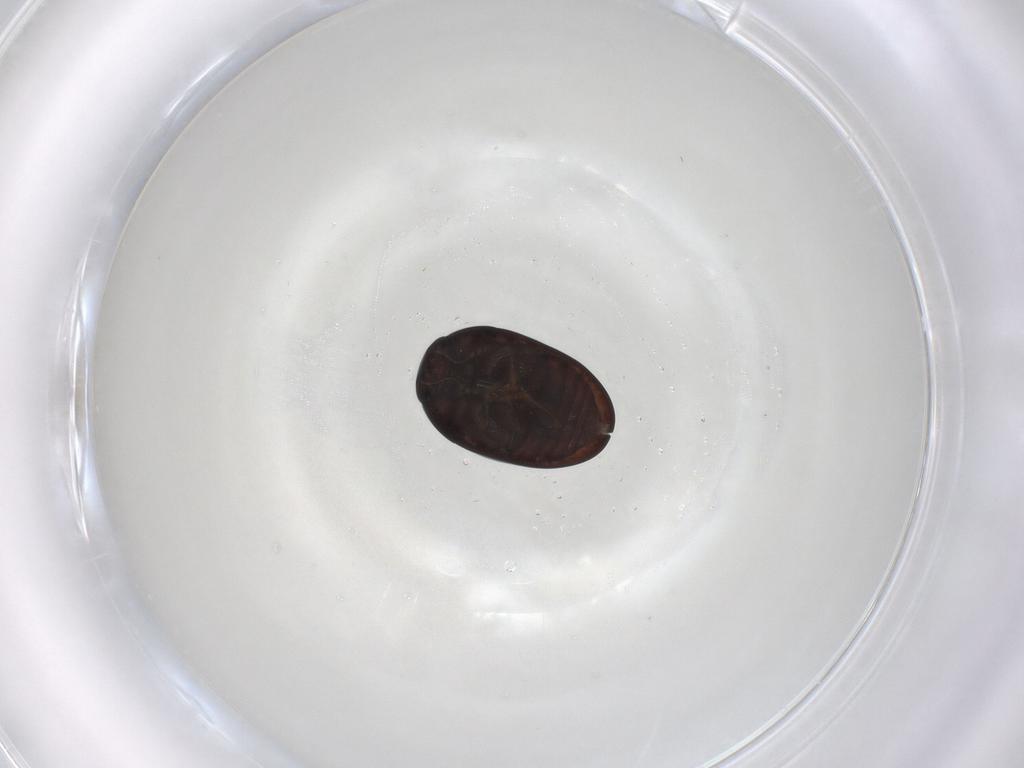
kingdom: Animalia
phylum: Arthropoda
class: Insecta
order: Coleoptera
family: Phalacridae
